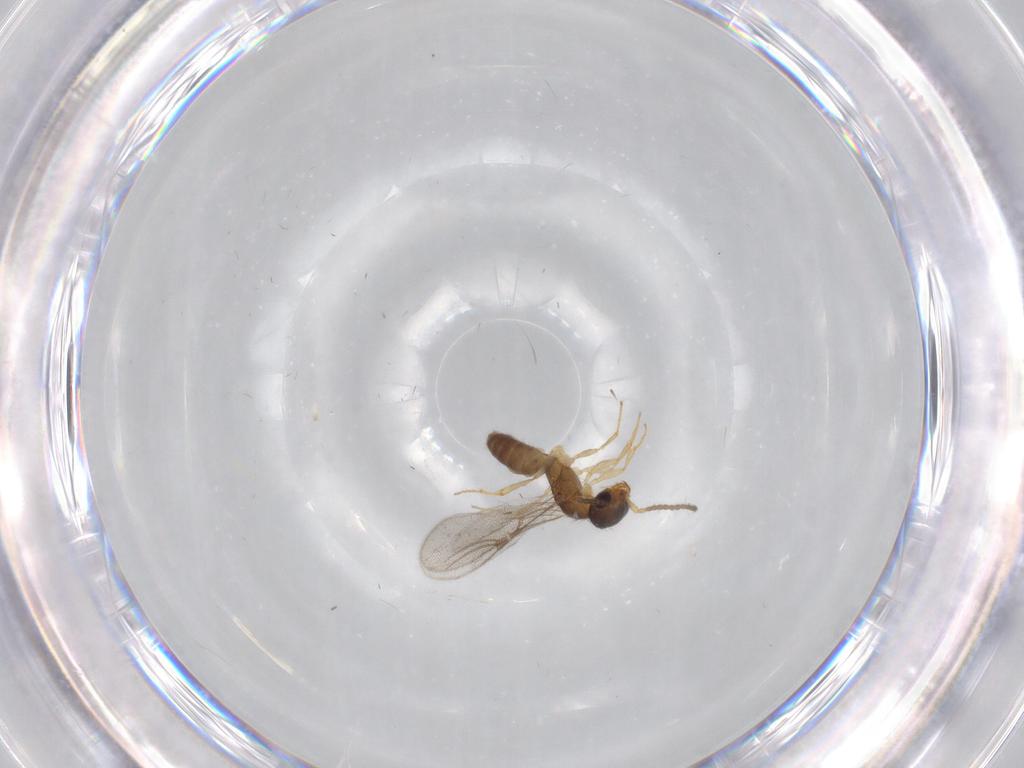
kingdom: Animalia
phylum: Arthropoda
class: Insecta
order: Hymenoptera
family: Bethylidae
